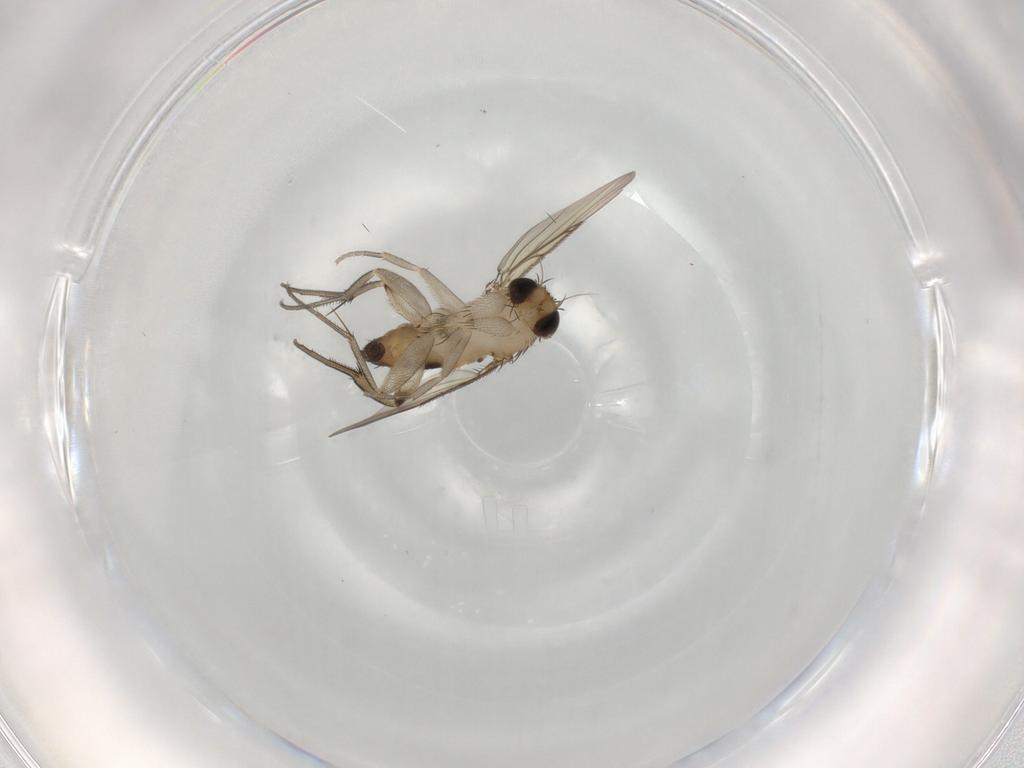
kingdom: Animalia
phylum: Arthropoda
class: Insecta
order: Diptera
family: Phoridae
